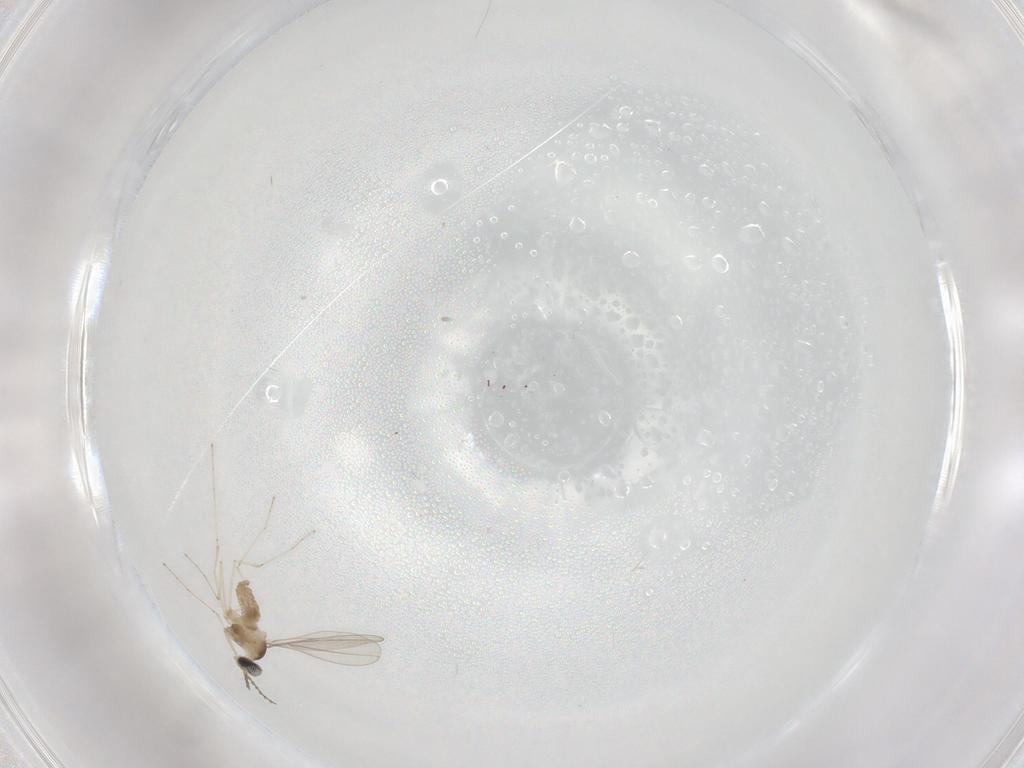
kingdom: Animalia
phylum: Arthropoda
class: Insecta
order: Diptera
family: Cecidomyiidae
